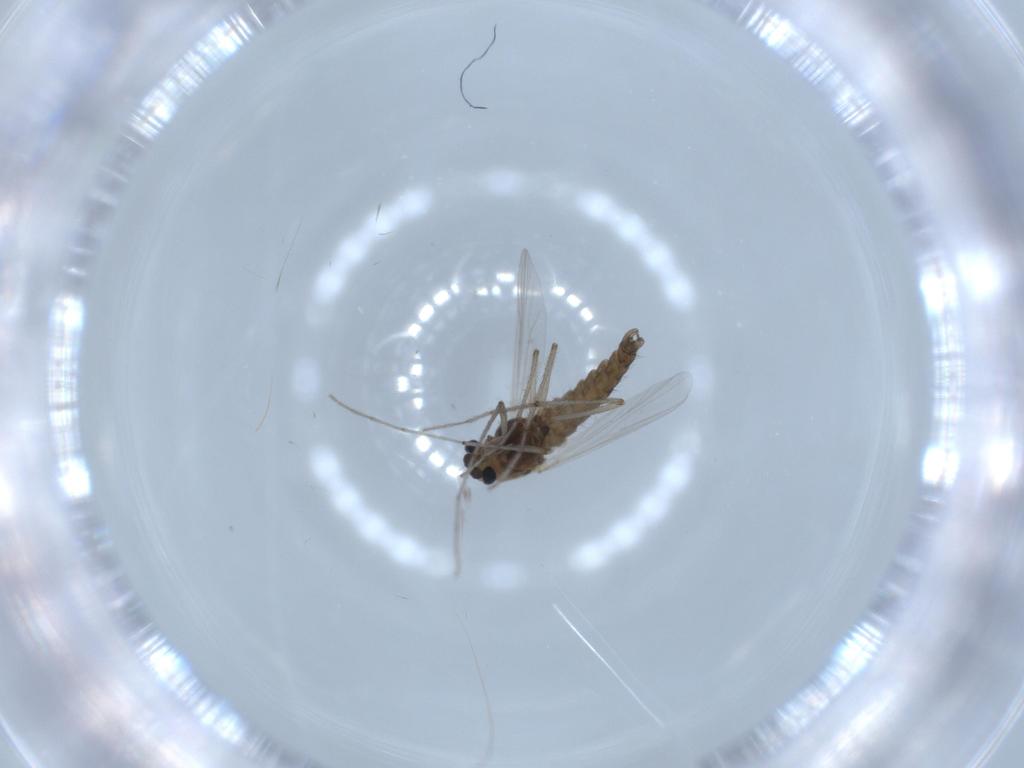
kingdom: Animalia
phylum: Arthropoda
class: Insecta
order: Diptera
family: Chironomidae
